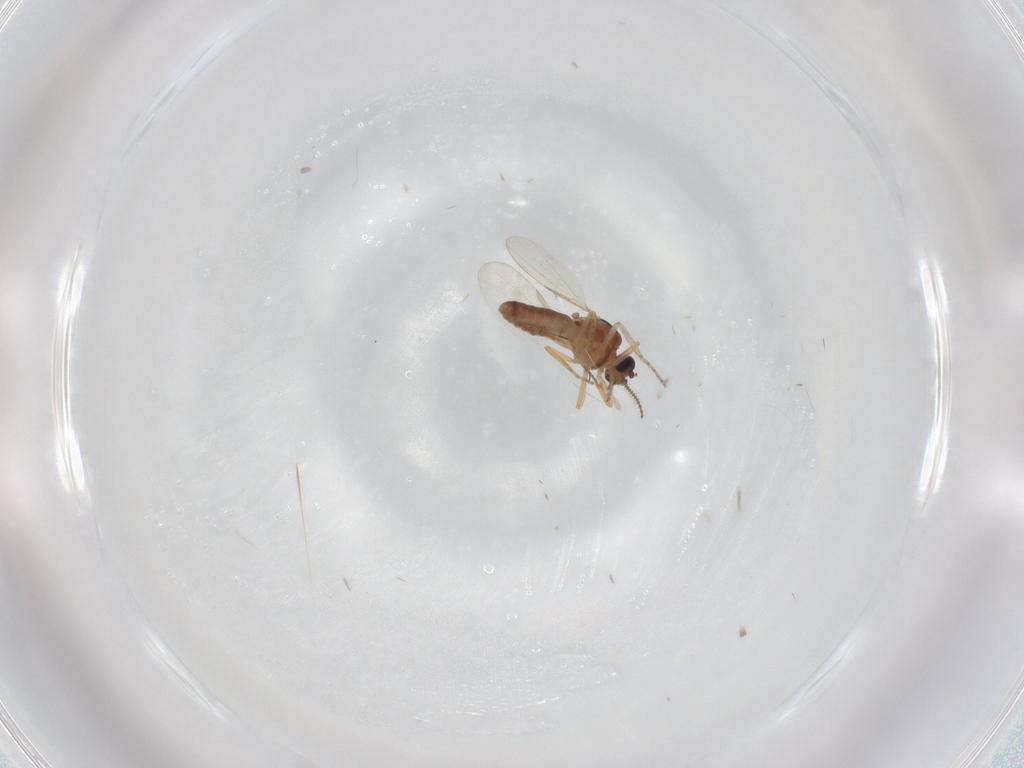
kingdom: Animalia
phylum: Arthropoda
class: Insecta
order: Diptera
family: Ceratopogonidae
